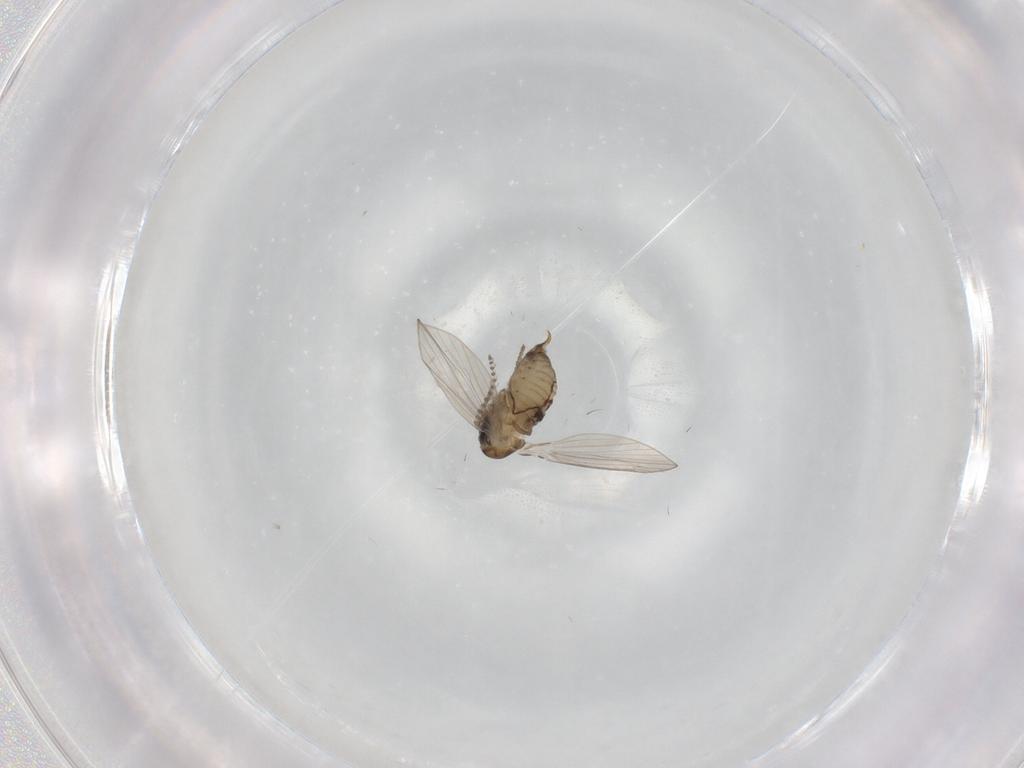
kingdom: Animalia
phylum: Arthropoda
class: Insecta
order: Diptera
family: Psychodidae
